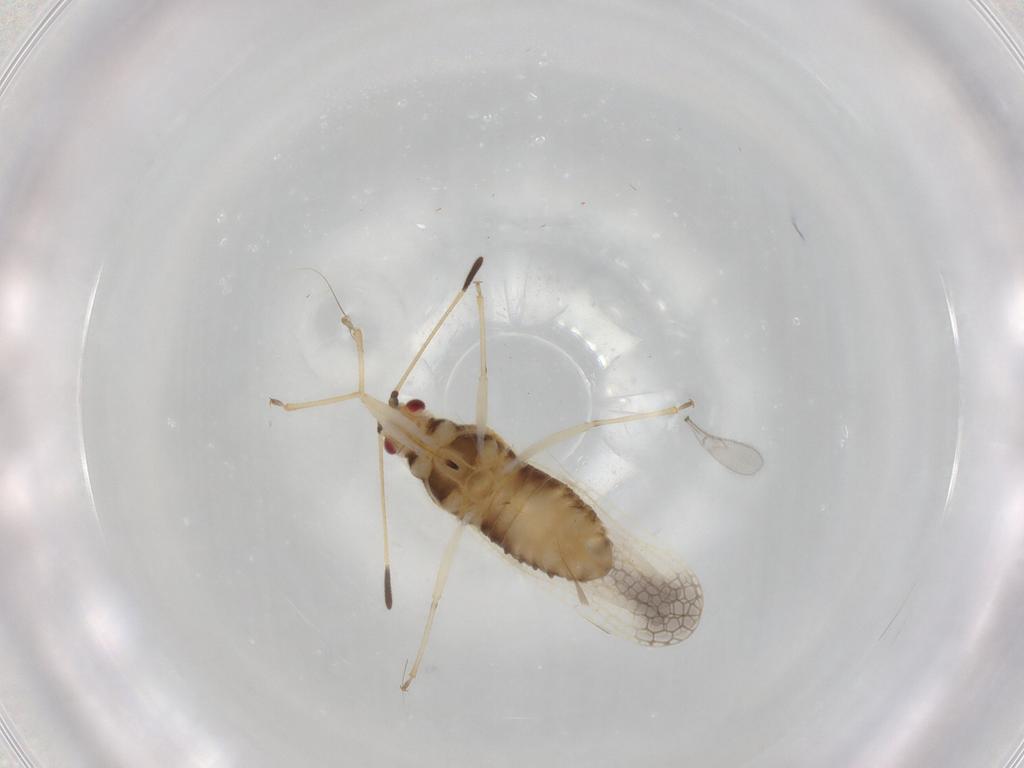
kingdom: Animalia
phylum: Arthropoda
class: Insecta
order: Hemiptera
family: Tingidae
